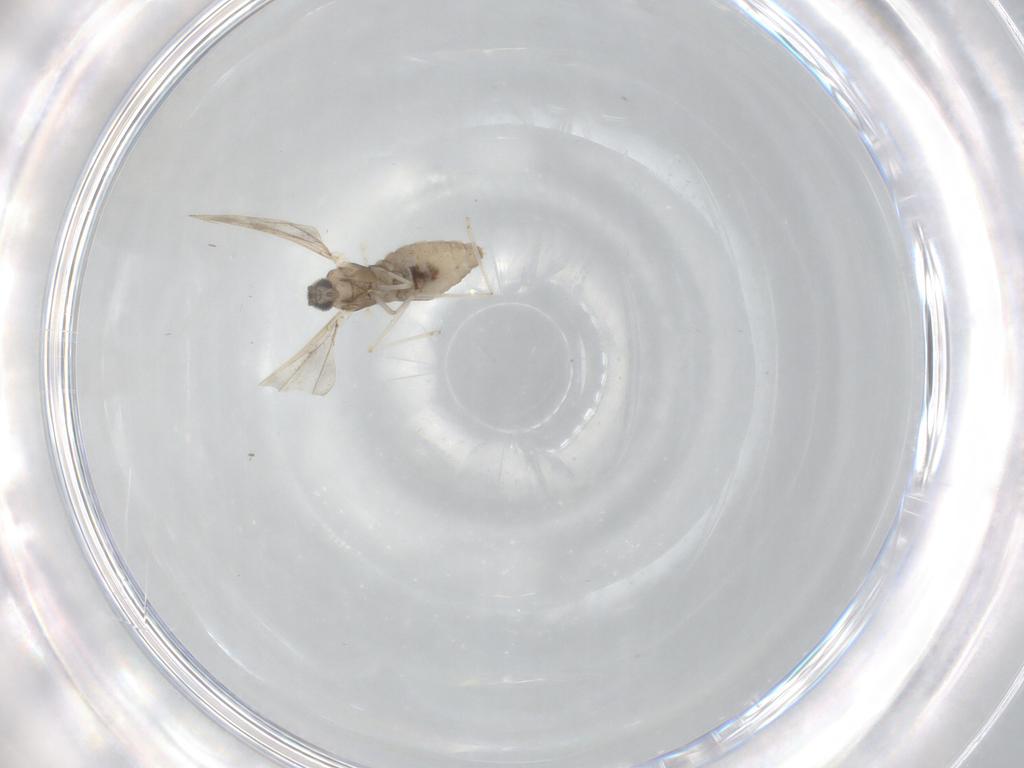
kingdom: Animalia
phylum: Arthropoda
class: Insecta
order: Diptera
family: Cecidomyiidae
